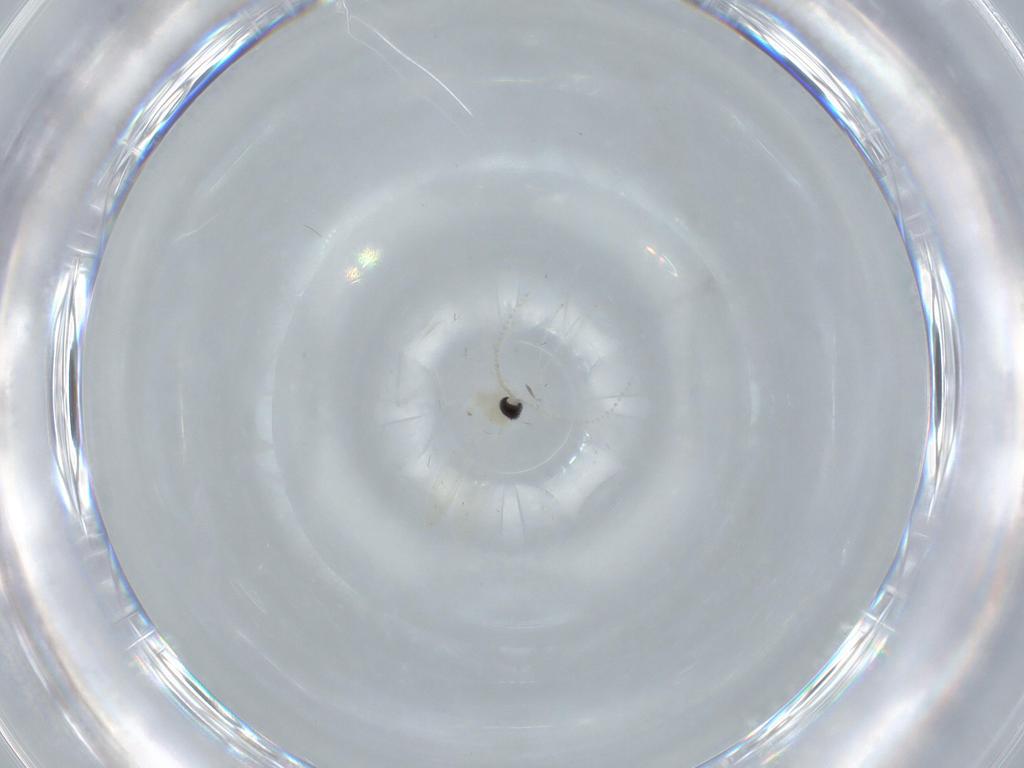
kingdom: Animalia
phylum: Arthropoda
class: Insecta
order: Diptera
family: Cecidomyiidae
